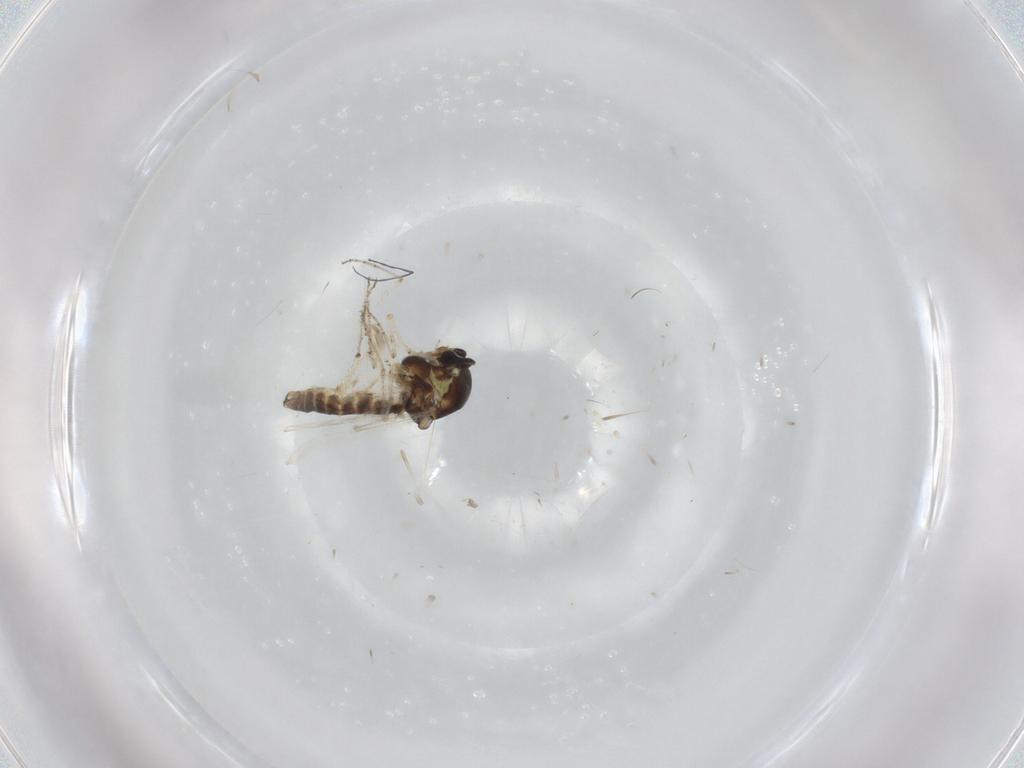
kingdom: Animalia
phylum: Arthropoda
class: Insecta
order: Diptera
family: Ceratopogonidae
